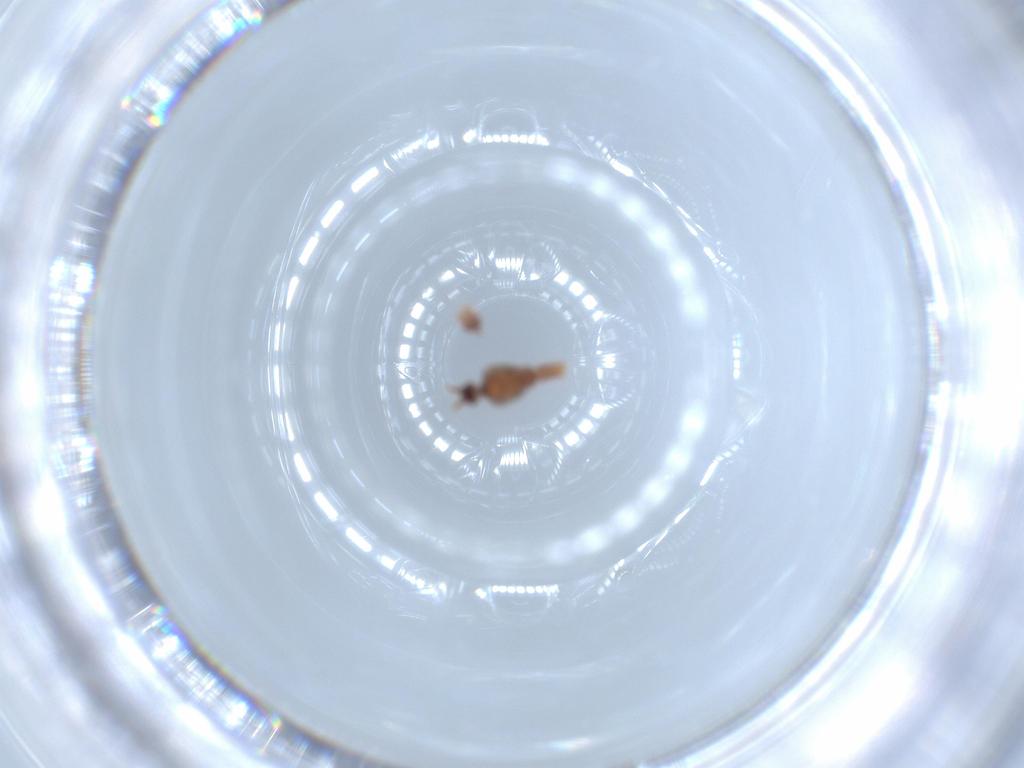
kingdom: Animalia
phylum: Arthropoda
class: Insecta
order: Hemiptera
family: Pseudococcidae
